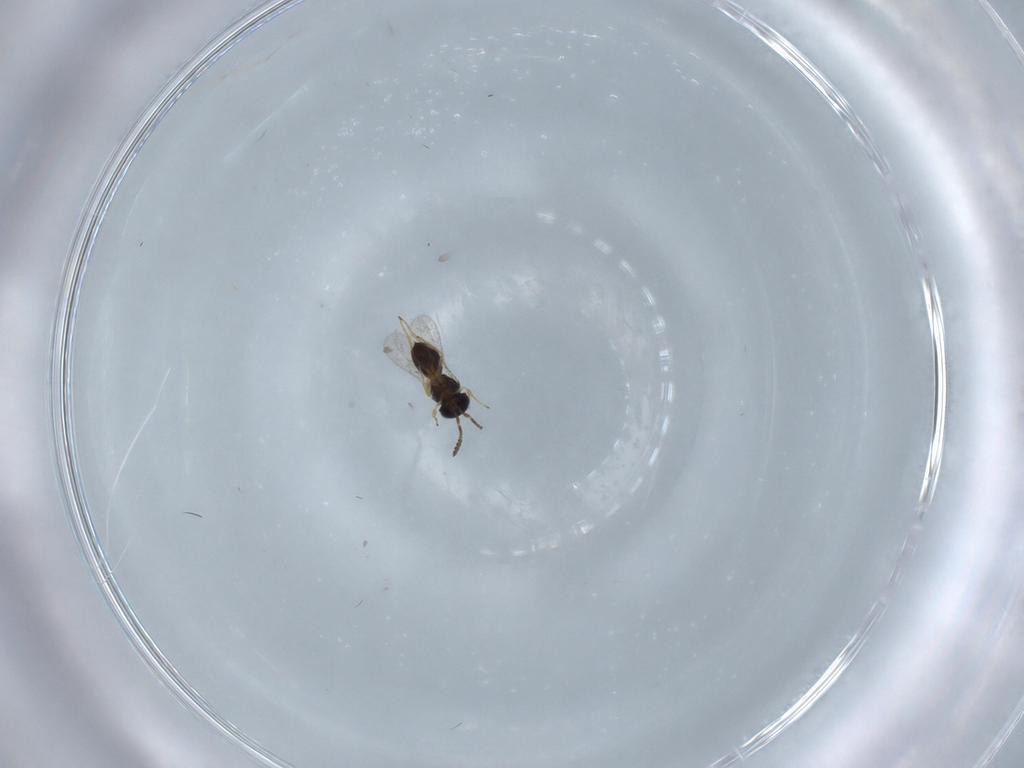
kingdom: Animalia
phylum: Arthropoda
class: Insecta
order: Hymenoptera
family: Scelionidae
